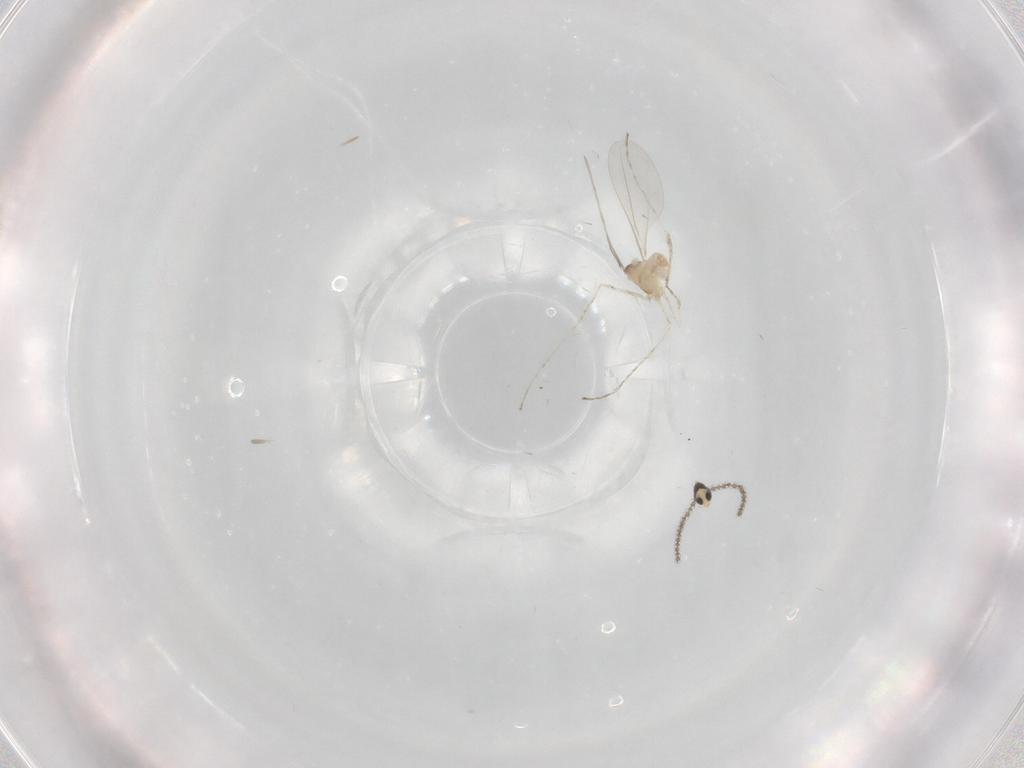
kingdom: Animalia
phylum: Arthropoda
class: Insecta
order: Diptera
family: Cecidomyiidae
